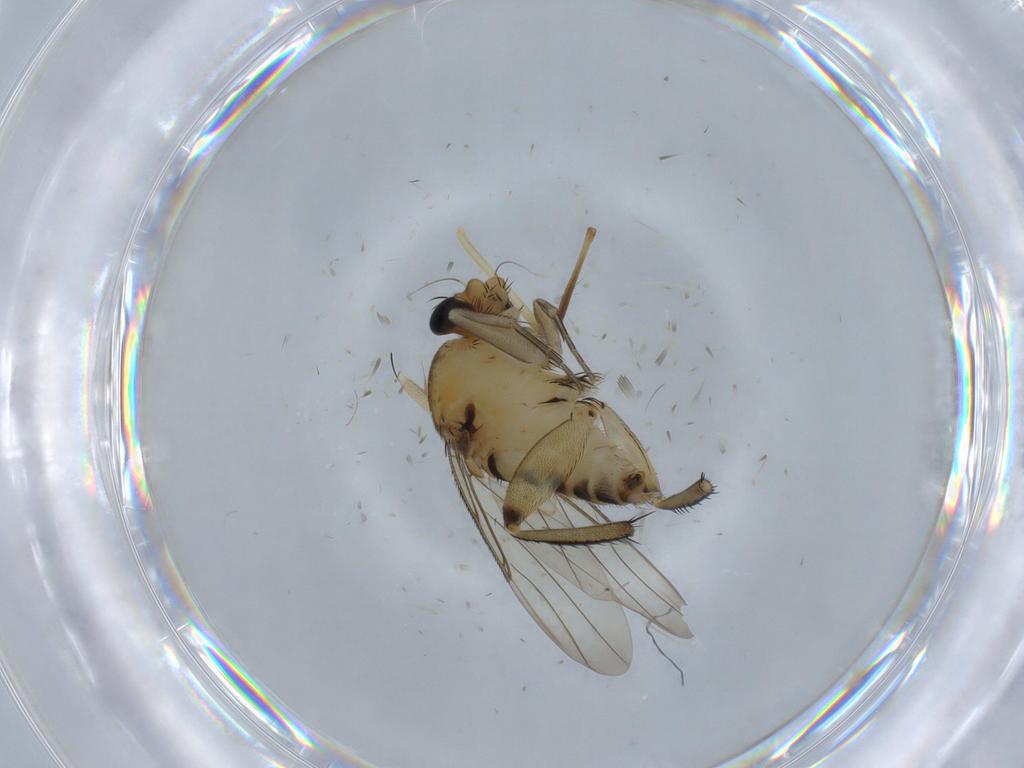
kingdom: Animalia
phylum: Arthropoda
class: Insecta
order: Diptera
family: Mycetophilidae
